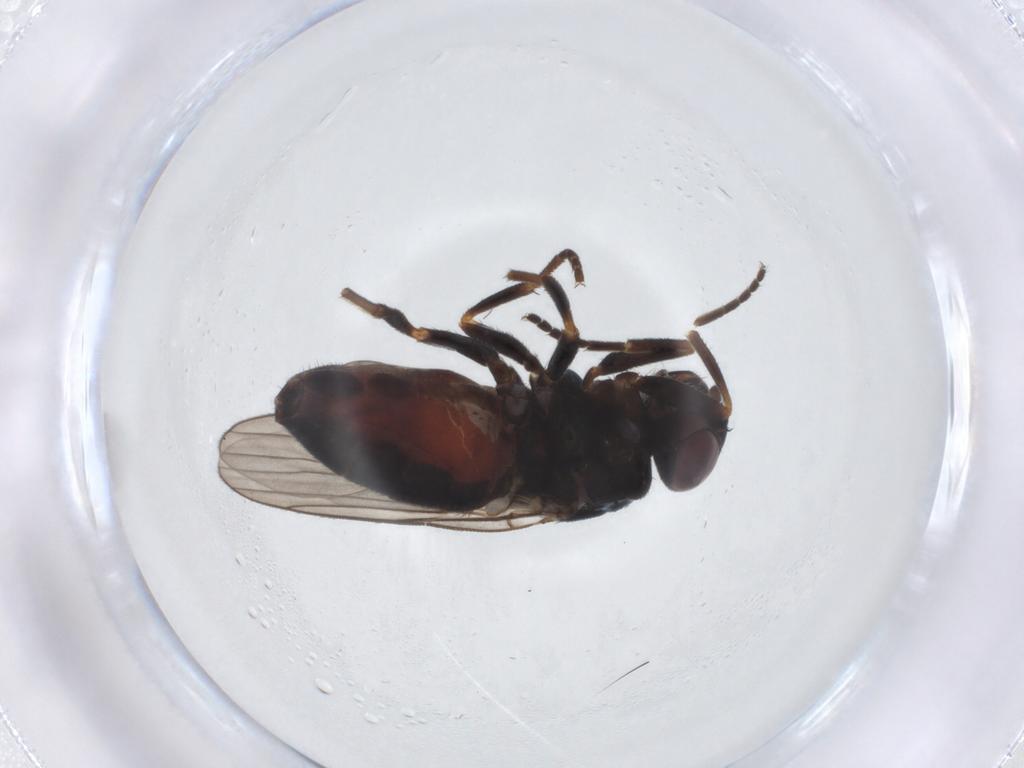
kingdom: Animalia
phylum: Arthropoda
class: Insecta
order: Diptera
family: Chloropidae
